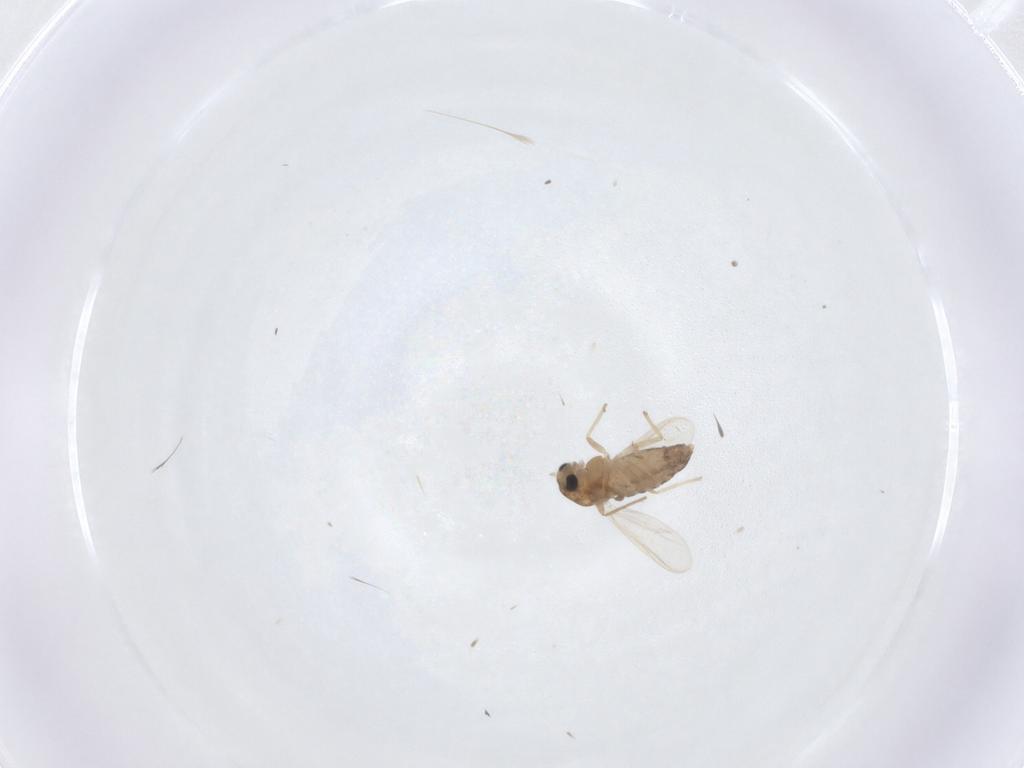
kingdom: Animalia
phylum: Arthropoda
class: Insecta
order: Diptera
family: Chironomidae
